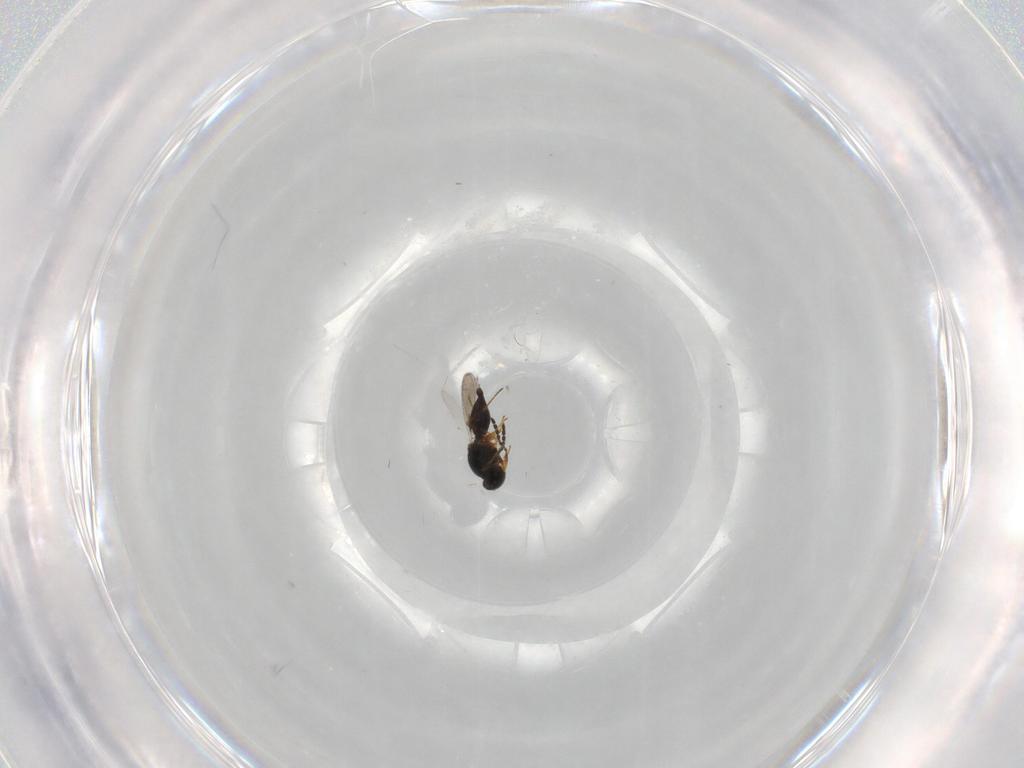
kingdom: Animalia
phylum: Arthropoda
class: Insecta
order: Hymenoptera
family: Platygastridae
